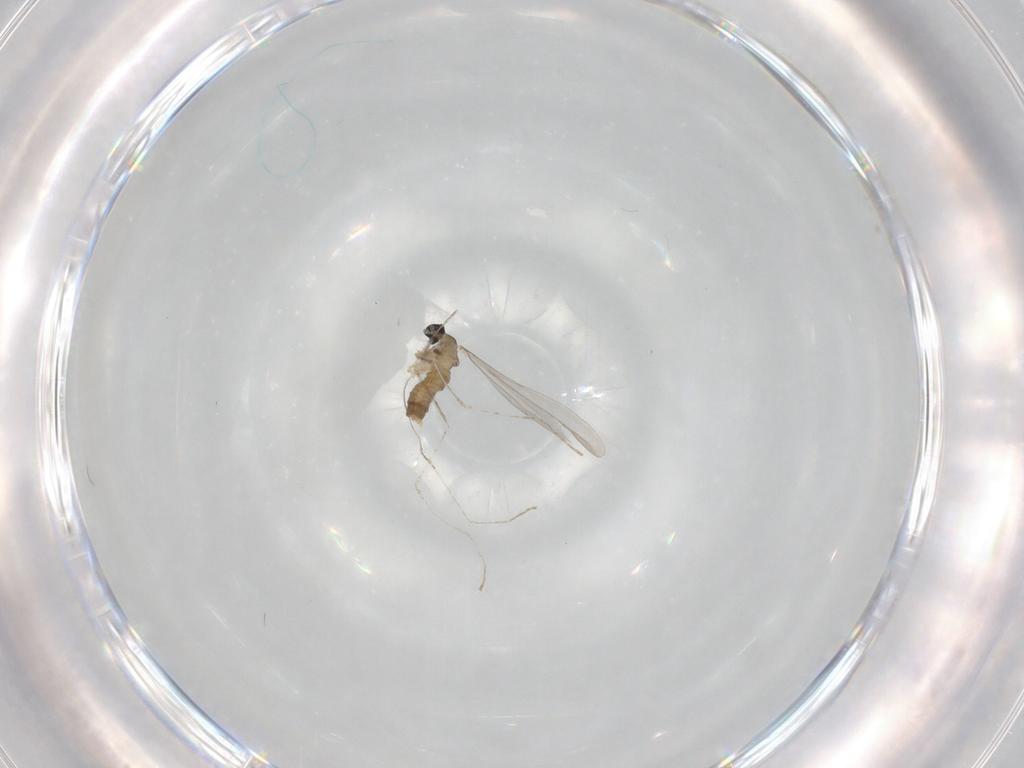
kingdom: Animalia
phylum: Arthropoda
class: Insecta
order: Diptera
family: Cecidomyiidae
